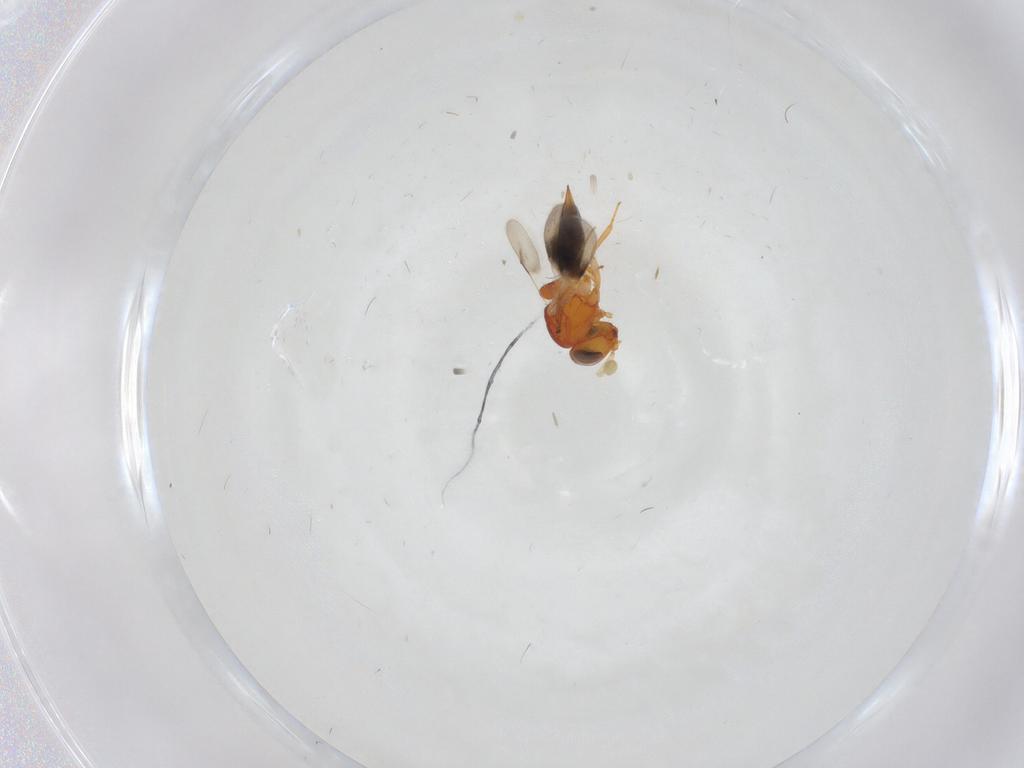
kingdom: Animalia
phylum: Arthropoda
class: Insecta
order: Hymenoptera
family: Scelionidae
